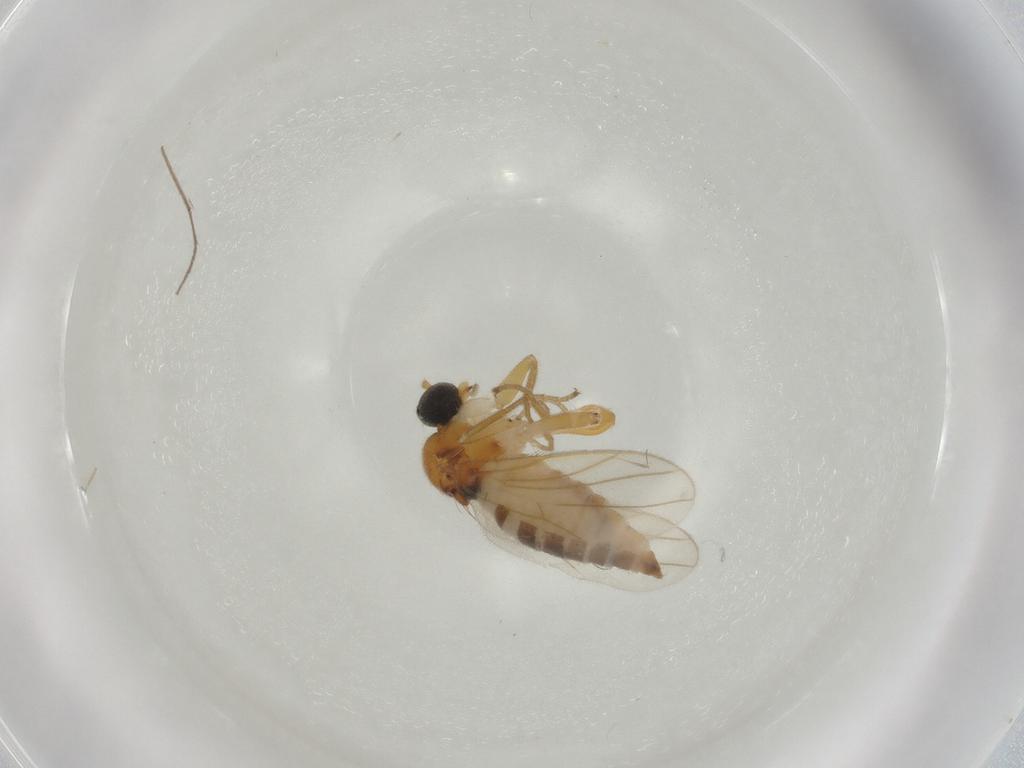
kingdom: Animalia
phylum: Arthropoda
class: Insecta
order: Diptera
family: Hybotidae
